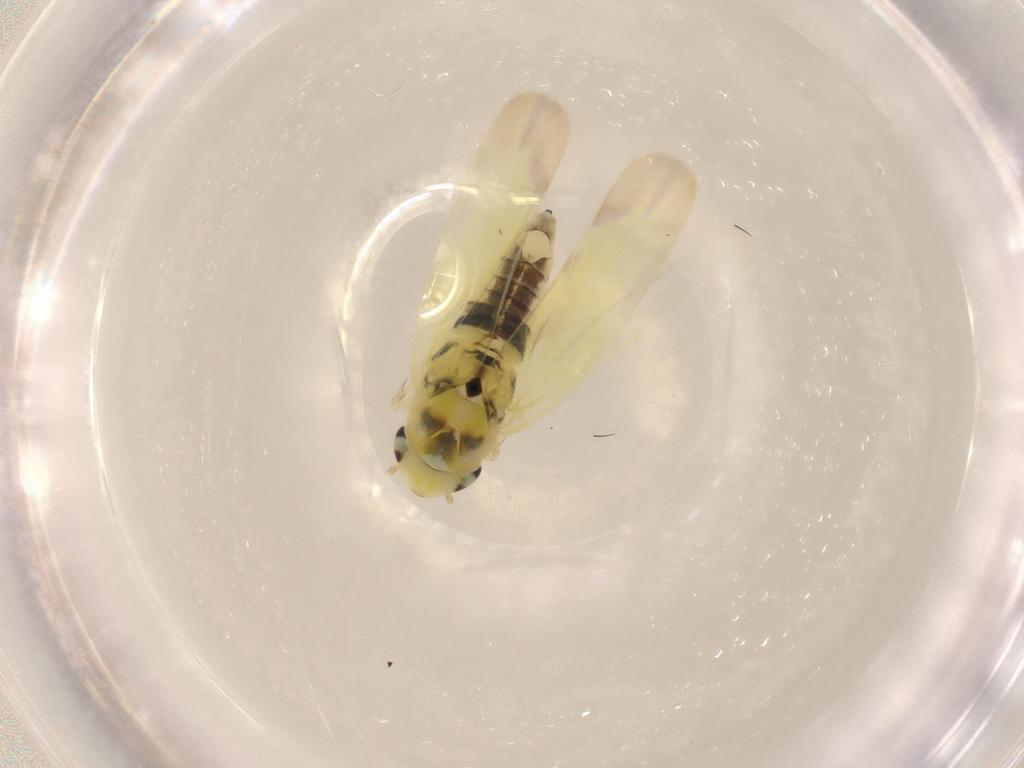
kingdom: Animalia
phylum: Arthropoda
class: Insecta
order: Hemiptera
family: Cicadellidae
